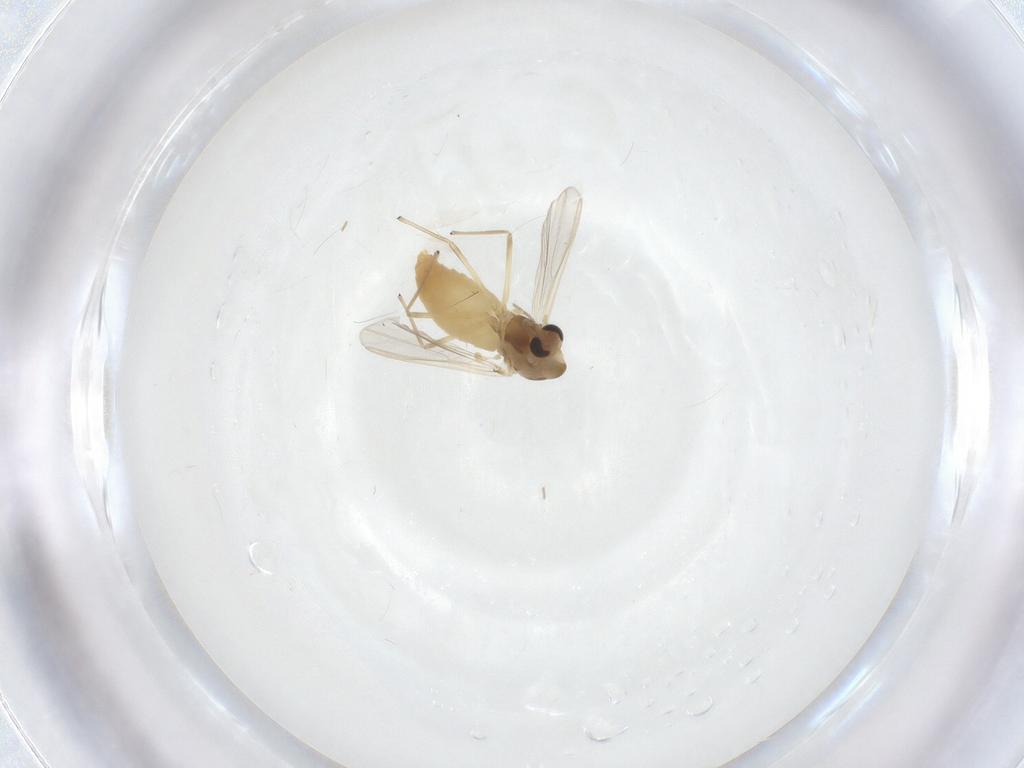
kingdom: Animalia
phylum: Arthropoda
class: Insecta
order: Diptera
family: Chironomidae
